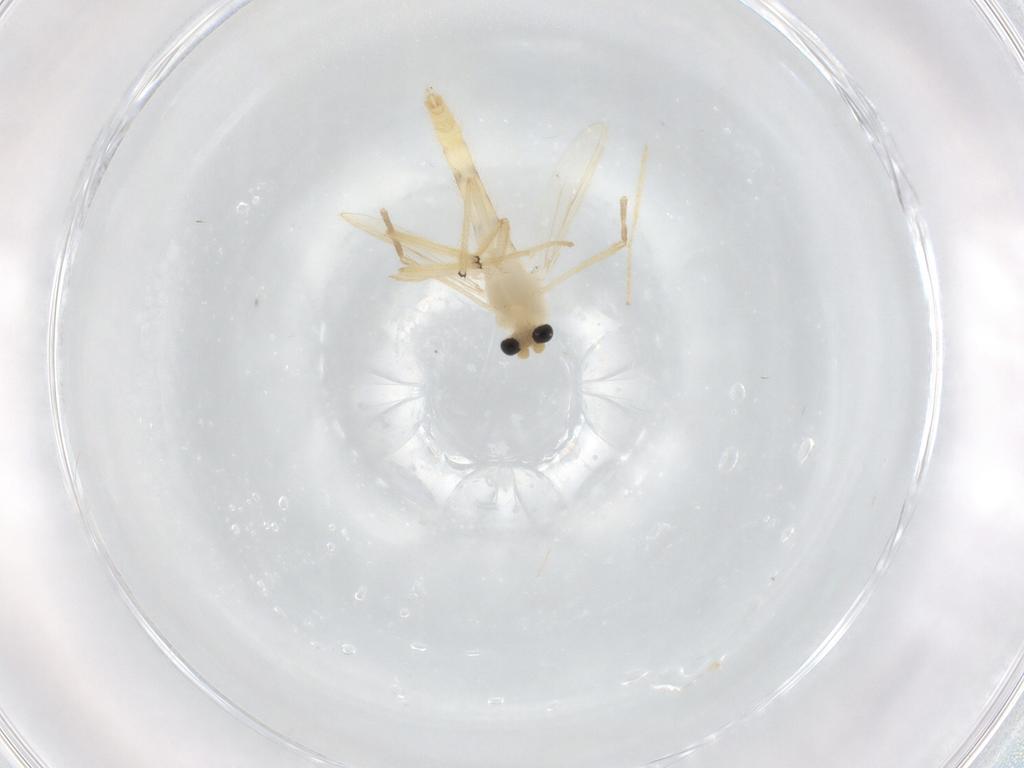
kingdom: Animalia
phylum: Arthropoda
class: Insecta
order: Diptera
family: Chironomidae
